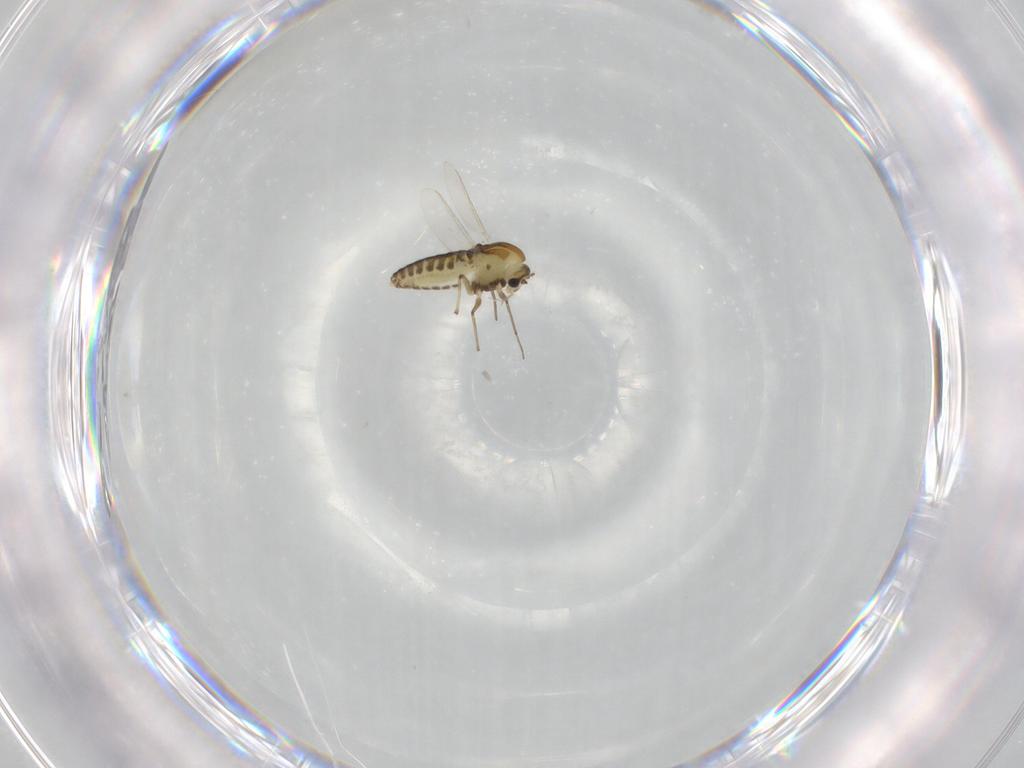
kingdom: Animalia
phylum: Arthropoda
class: Insecta
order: Diptera
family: Chironomidae
